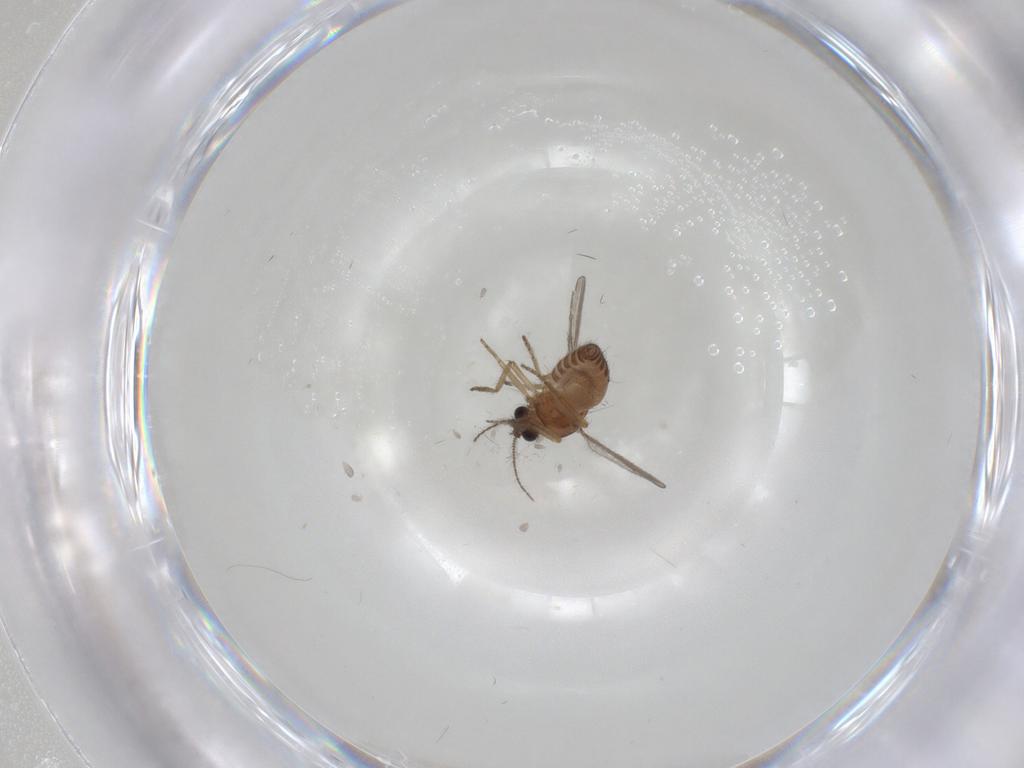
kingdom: Animalia
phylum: Arthropoda
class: Insecta
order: Diptera
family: Ceratopogonidae
